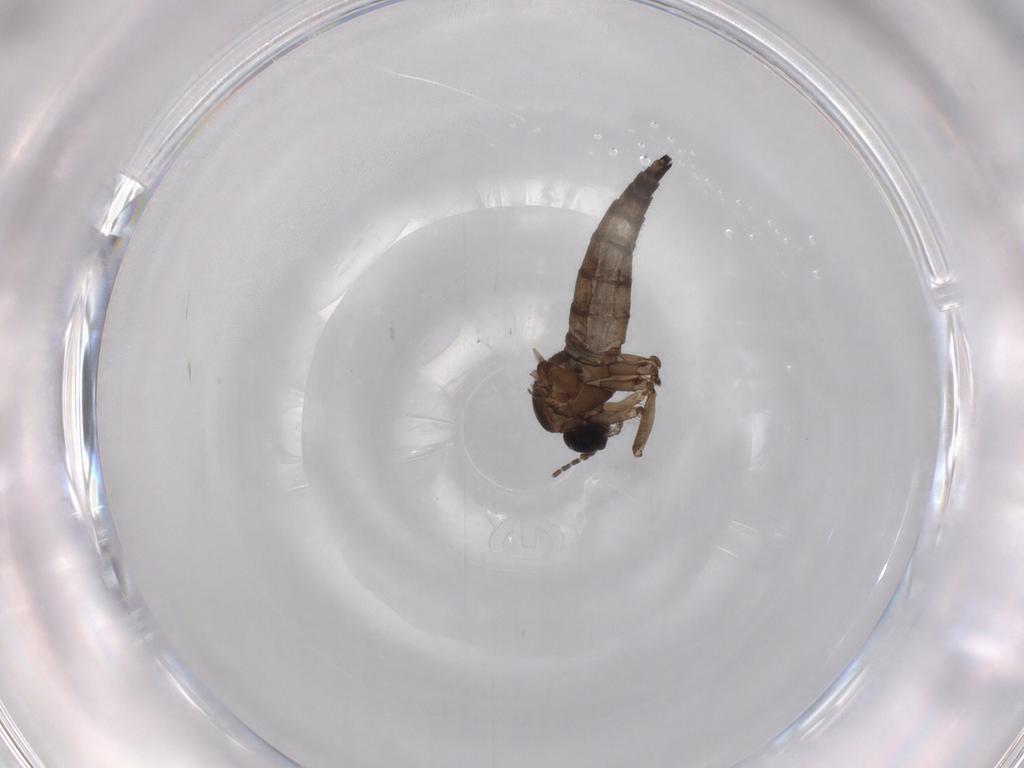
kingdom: Animalia
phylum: Arthropoda
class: Insecta
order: Diptera
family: Sciaridae
